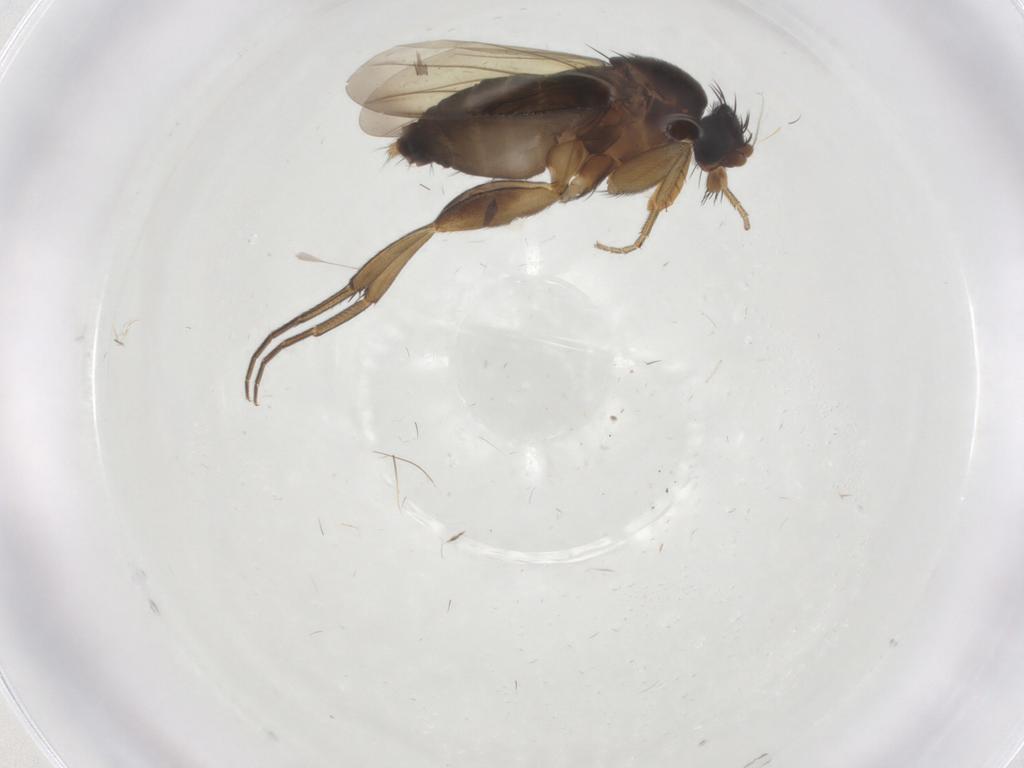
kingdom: Animalia
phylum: Arthropoda
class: Insecta
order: Diptera
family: Phoridae
